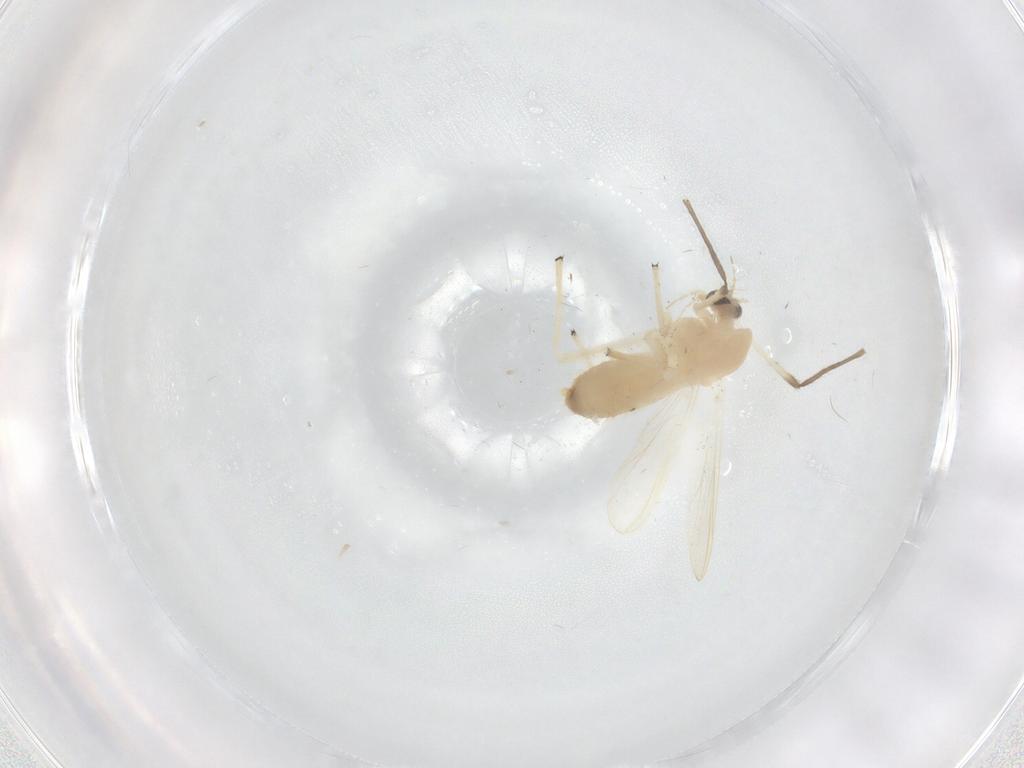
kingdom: Animalia
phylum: Arthropoda
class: Insecta
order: Diptera
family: Chironomidae
